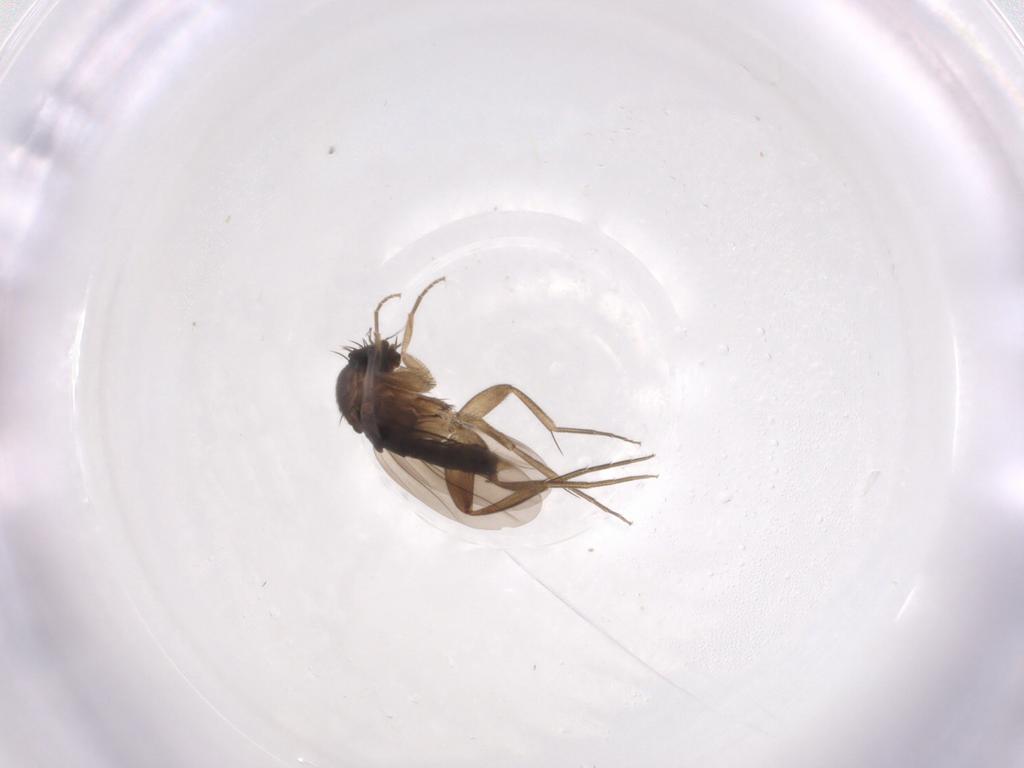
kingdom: Animalia
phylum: Arthropoda
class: Insecta
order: Diptera
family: Phoridae
